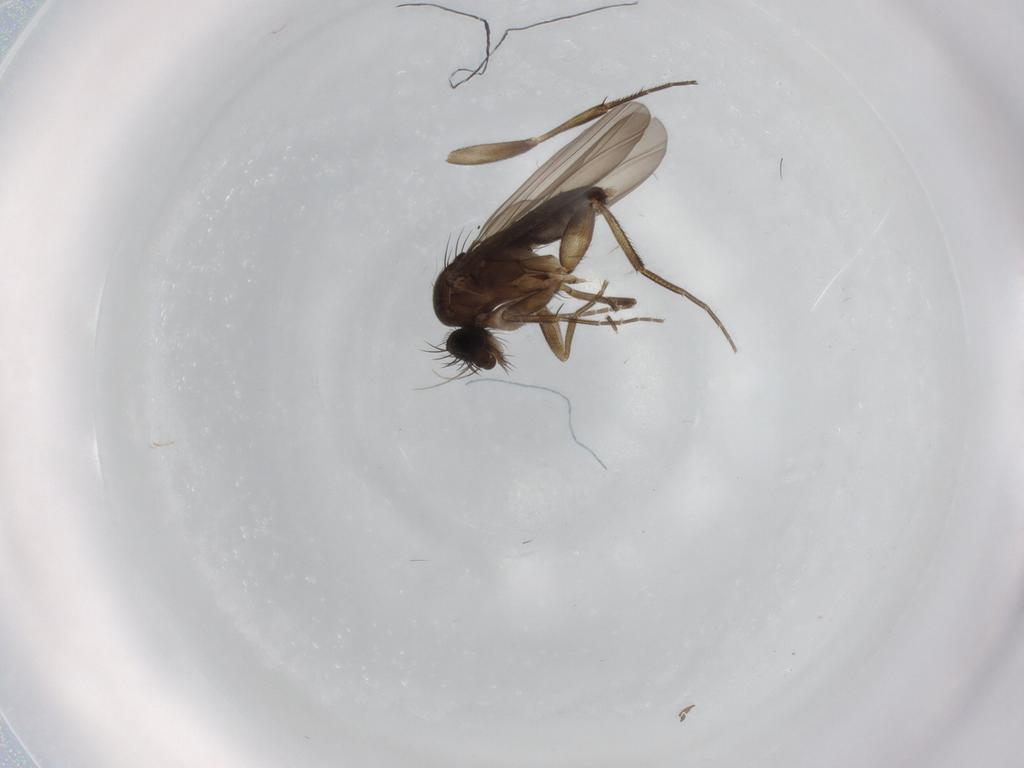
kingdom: Animalia
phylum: Arthropoda
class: Insecta
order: Diptera
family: Phoridae
